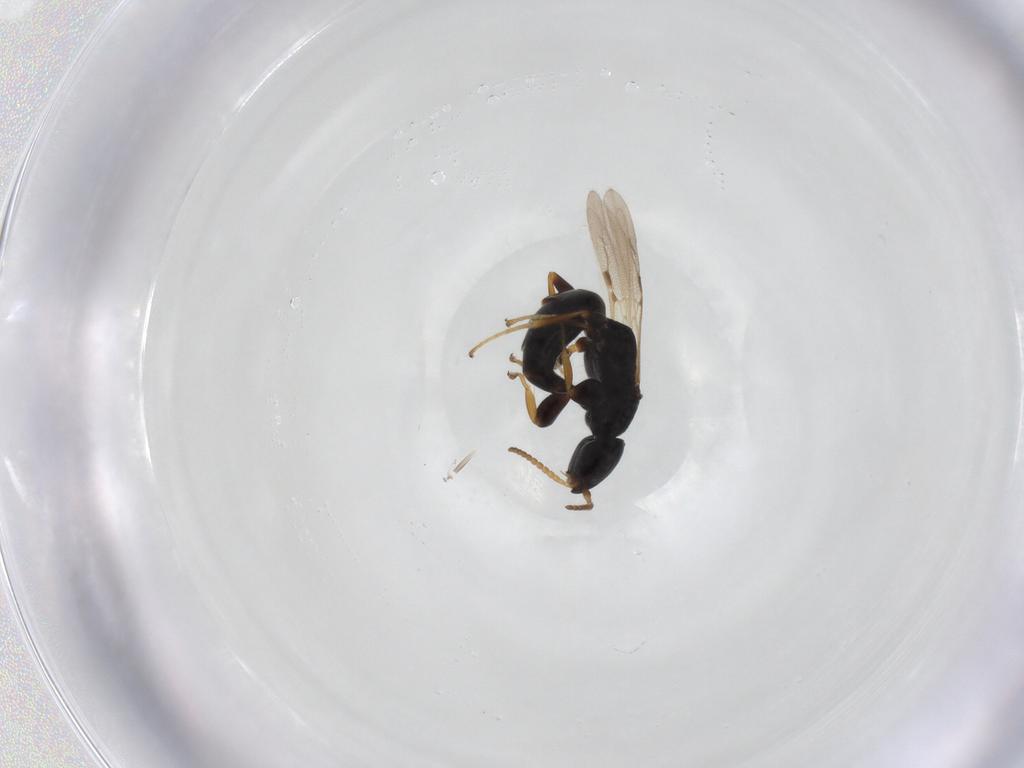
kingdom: Animalia
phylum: Arthropoda
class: Insecta
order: Hymenoptera
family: Bethylidae
